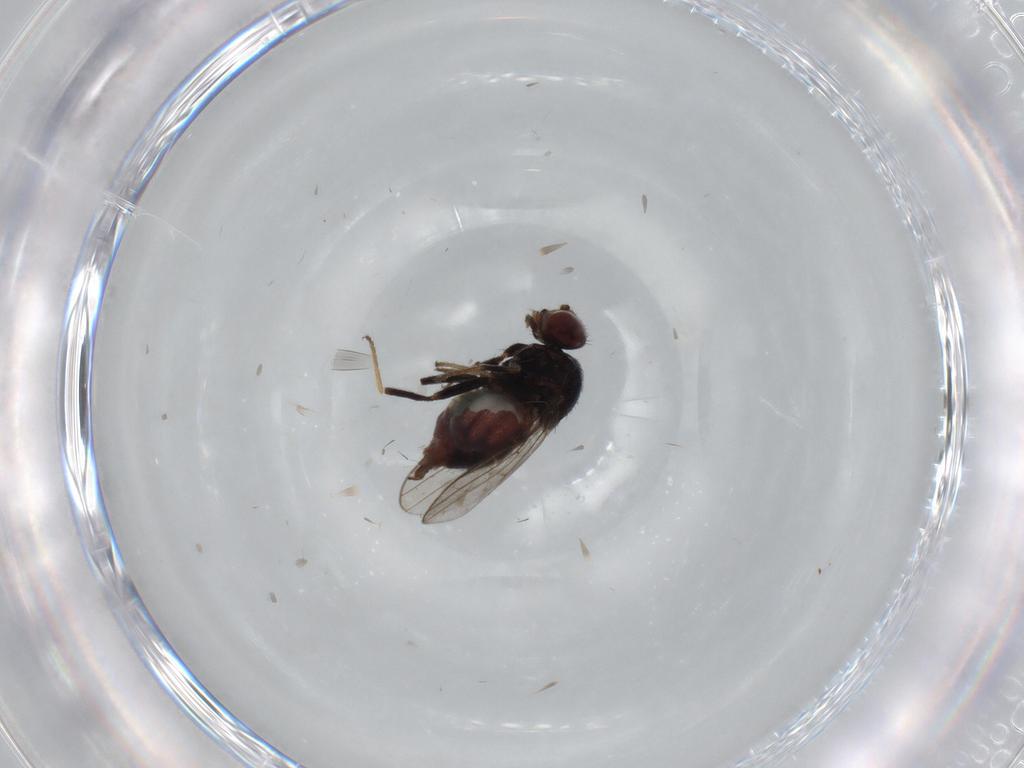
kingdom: Animalia
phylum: Arthropoda
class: Insecta
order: Diptera
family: Chloropidae
